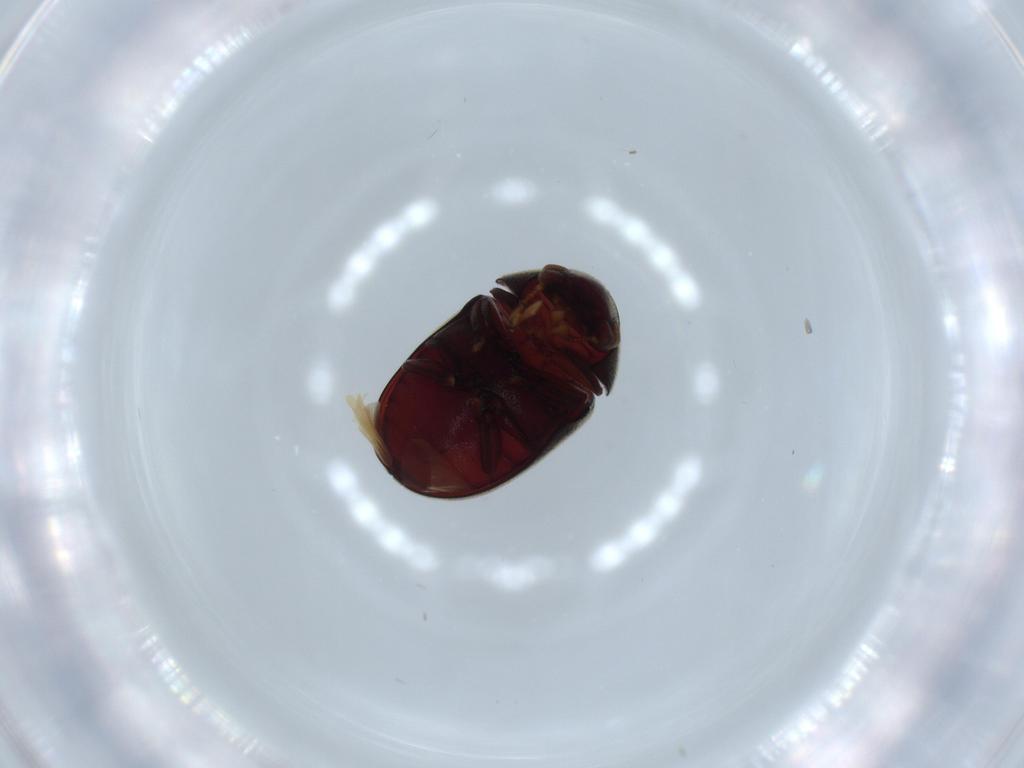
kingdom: Animalia
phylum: Arthropoda
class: Insecta
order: Coleoptera
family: Ptinidae
